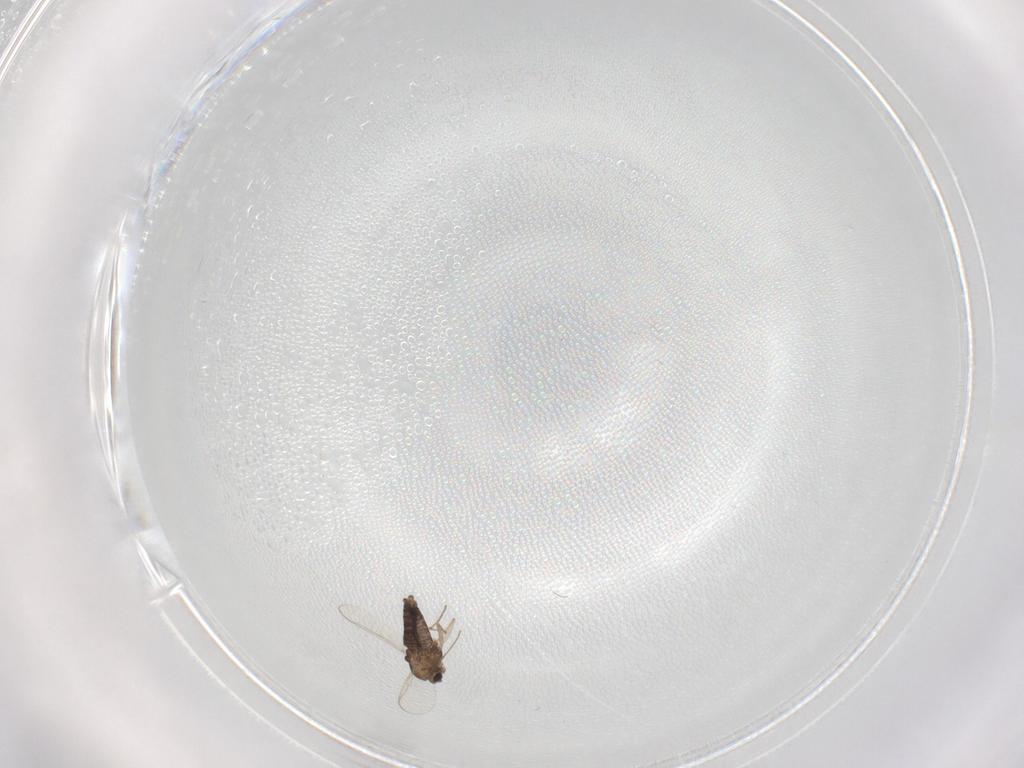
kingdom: Animalia
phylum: Arthropoda
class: Insecta
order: Diptera
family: Chironomidae
